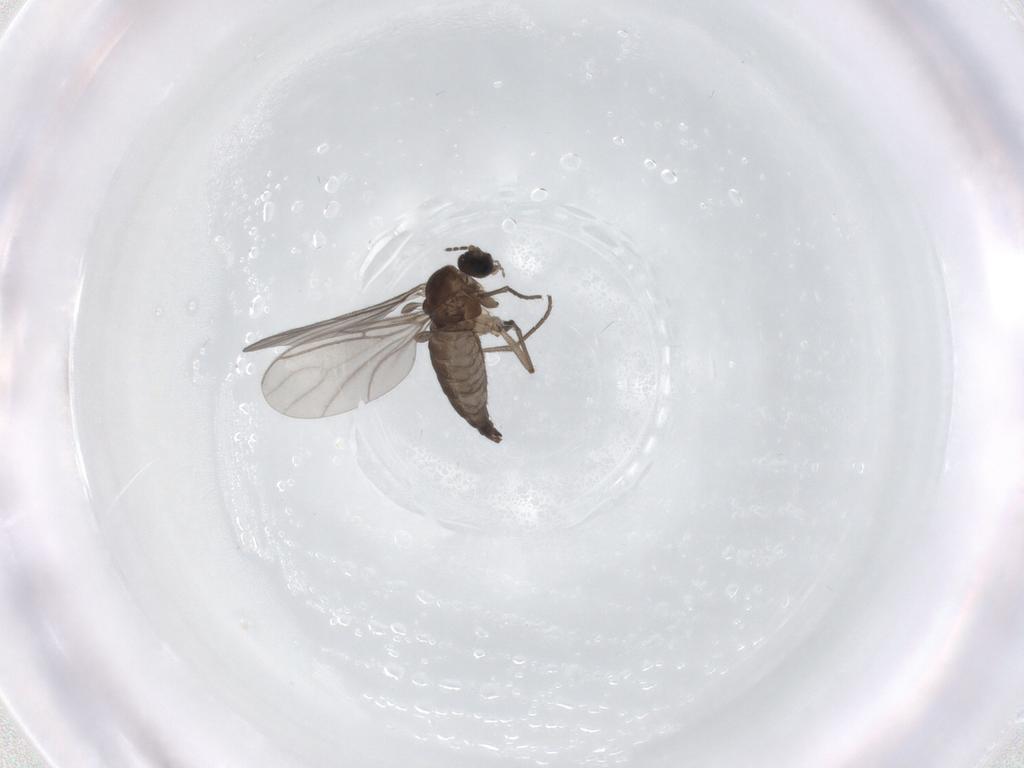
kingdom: Animalia
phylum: Arthropoda
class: Insecta
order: Diptera
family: Sciaridae
